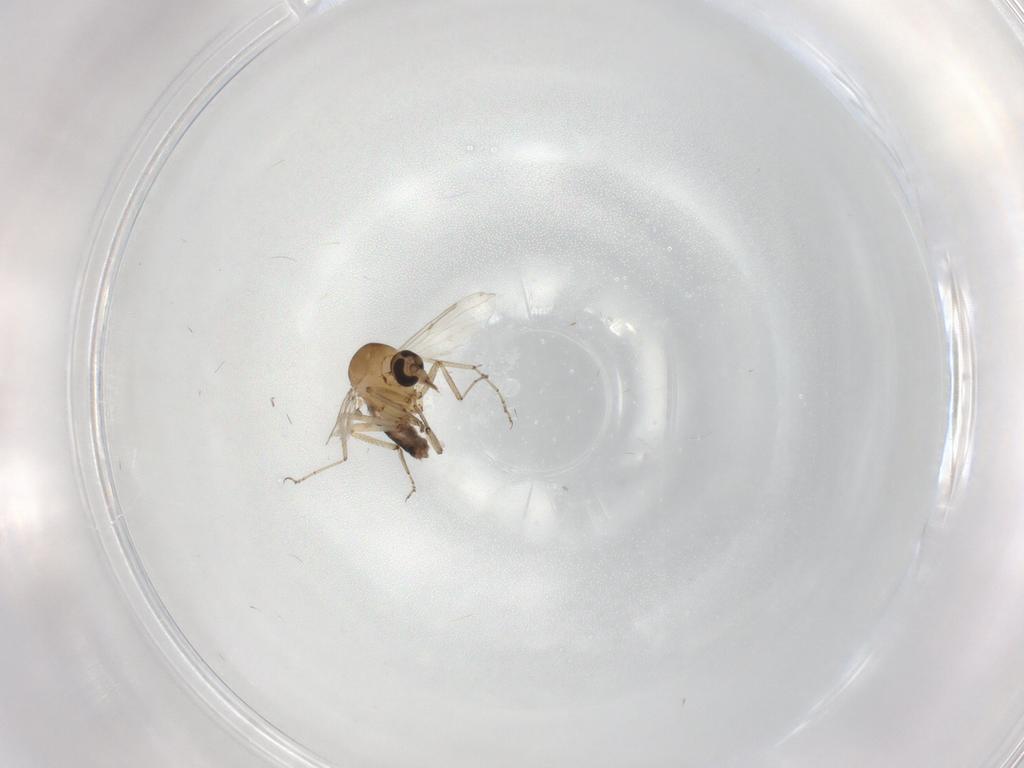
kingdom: Animalia
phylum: Arthropoda
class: Insecta
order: Diptera
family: Ceratopogonidae
